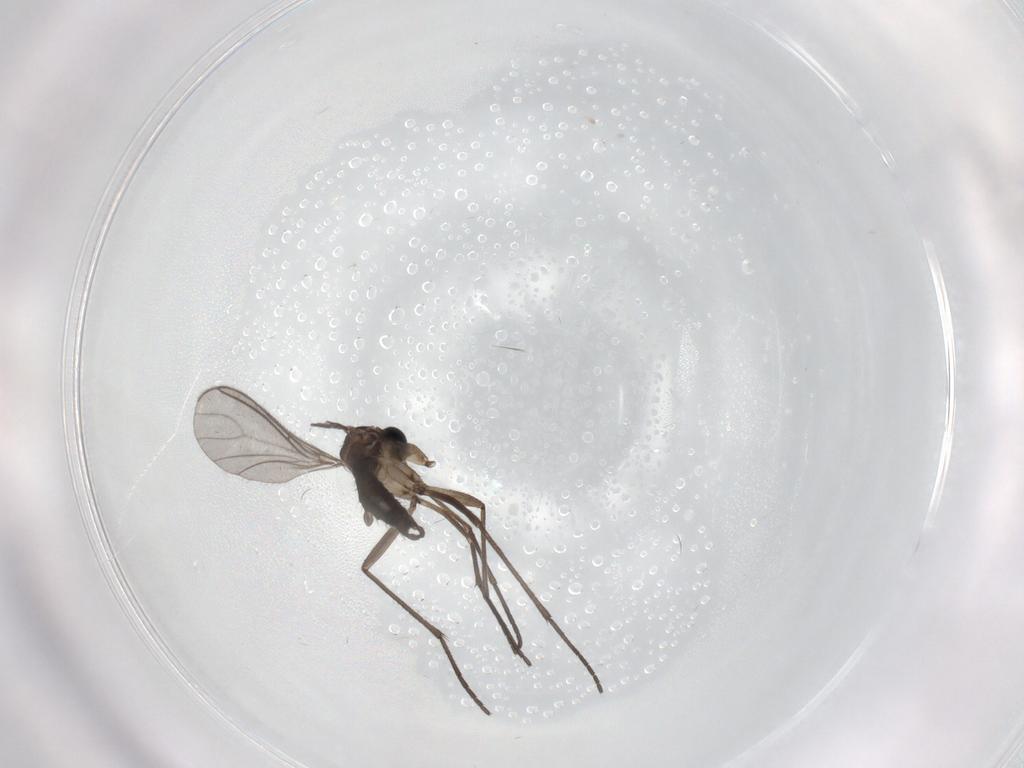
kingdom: Animalia
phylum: Arthropoda
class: Insecta
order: Diptera
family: Sciaridae
